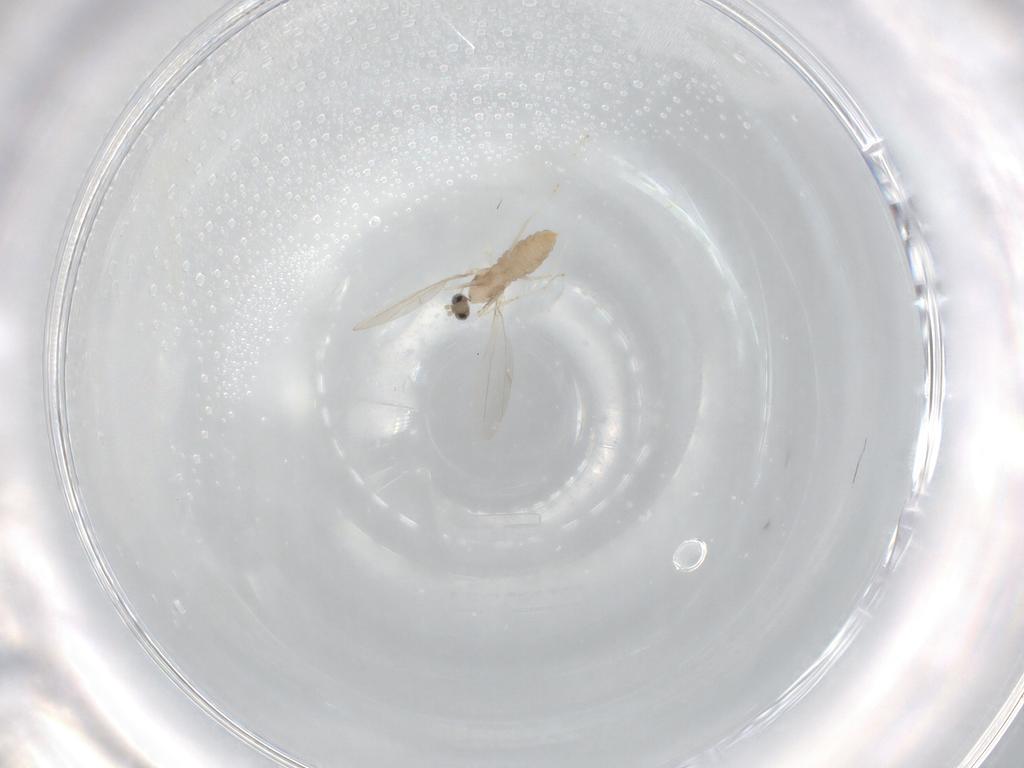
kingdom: Animalia
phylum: Arthropoda
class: Insecta
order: Diptera
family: Cecidomyiidae
